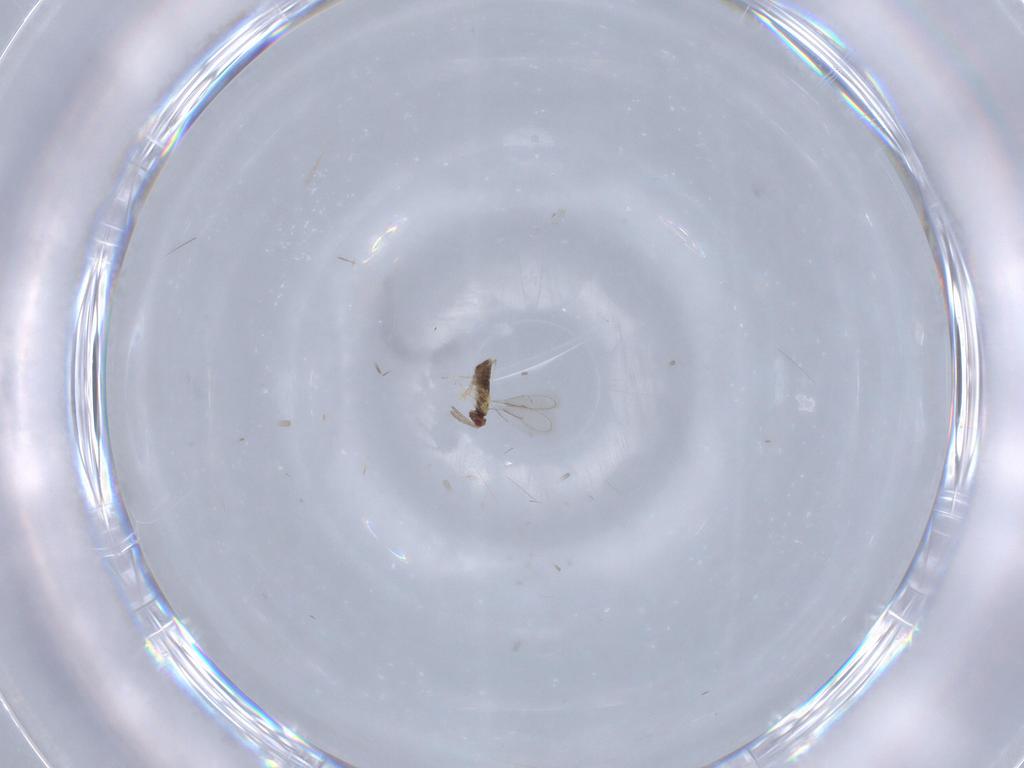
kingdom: Animalia
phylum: Arthropoda
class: Insecta
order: Hymenoptera
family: Aphelinidae
